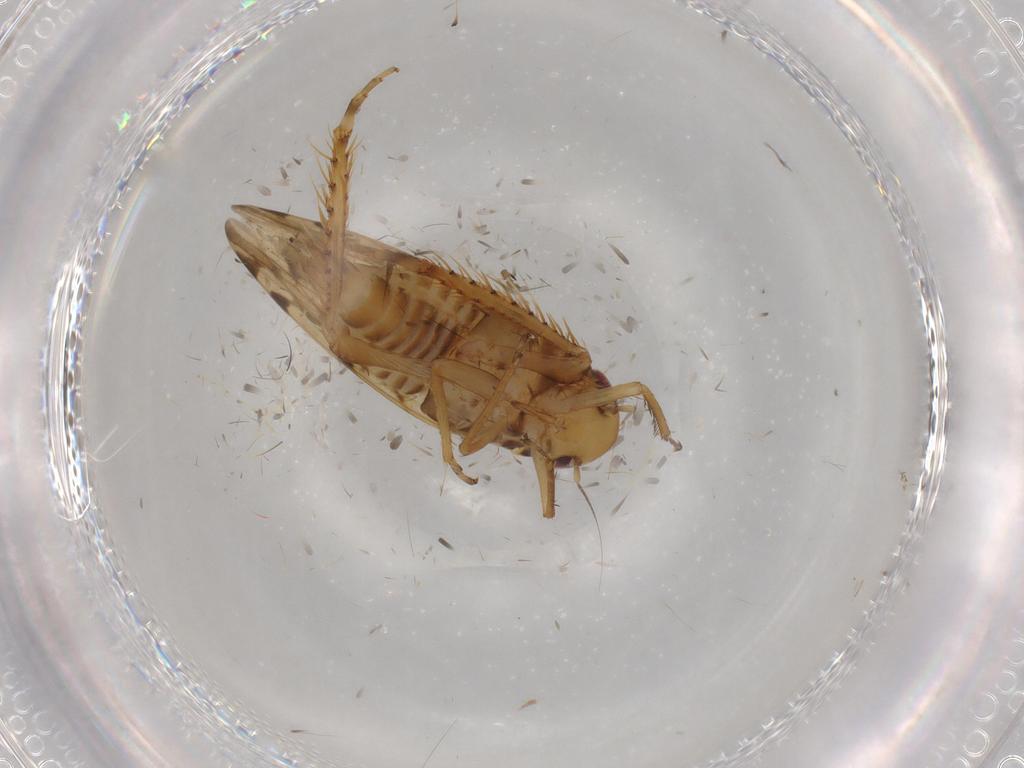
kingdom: Animalia
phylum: Arthropoda
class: Insecta
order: Hemiptera
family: Cicadellidae
